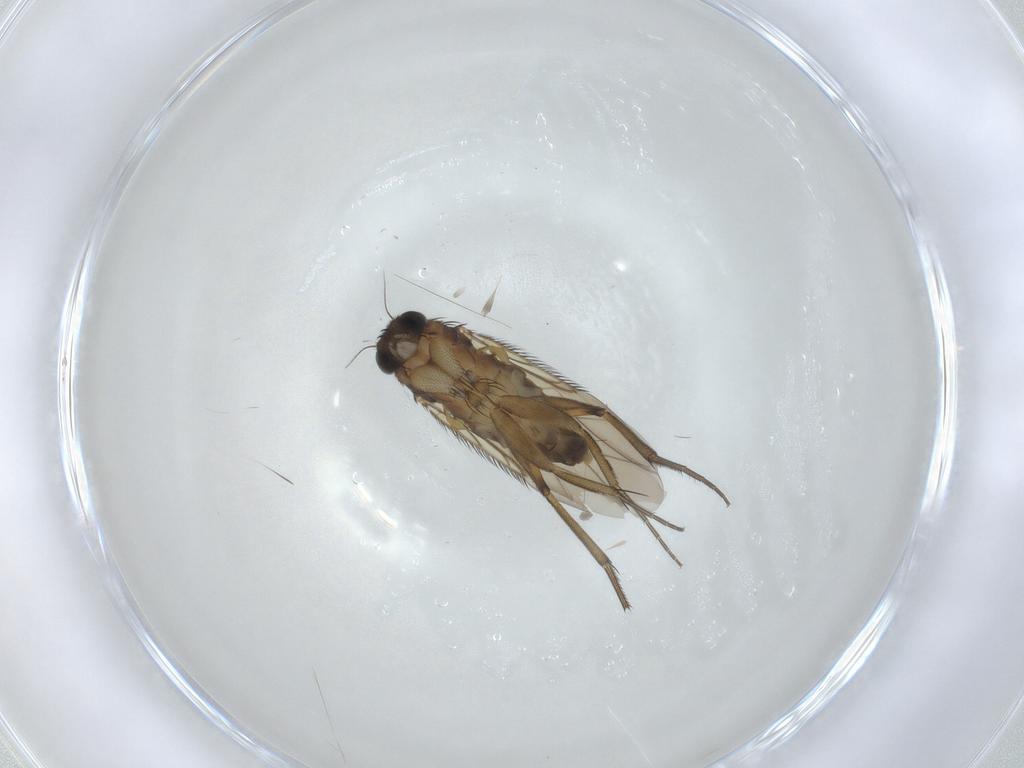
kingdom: Animalia
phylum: Arthropoda
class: Insecta
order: Diptera
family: Phoridae
